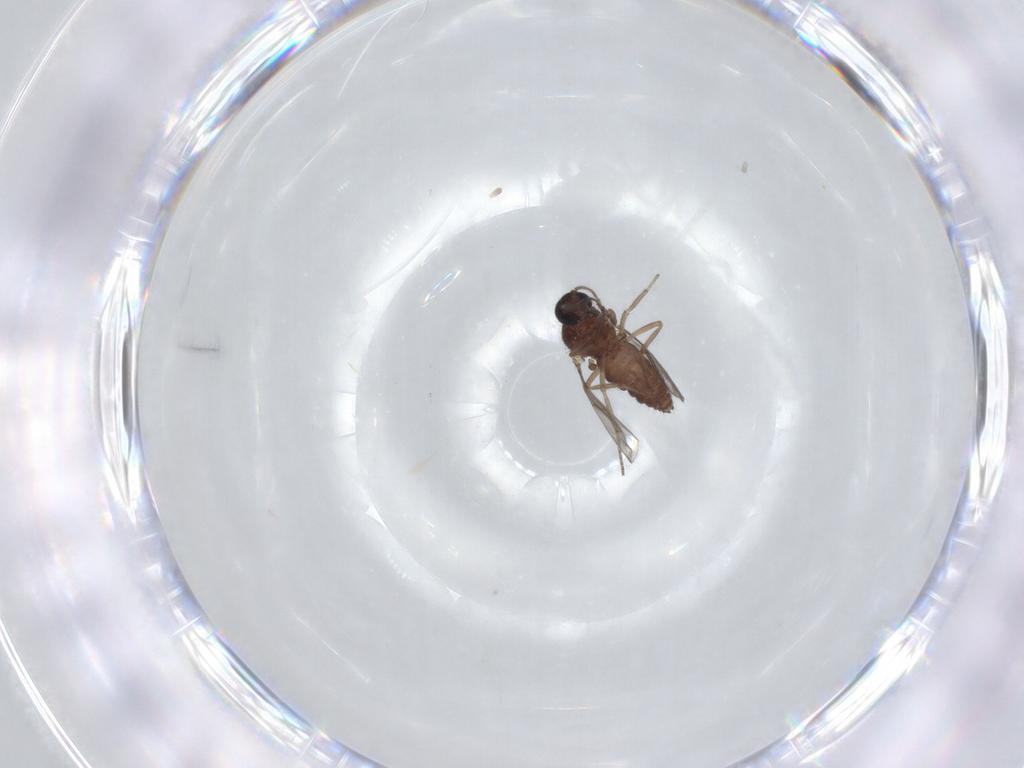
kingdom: Animalia
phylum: Arthropoda
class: Insecta
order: Diptera
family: Ceratopogonidae
